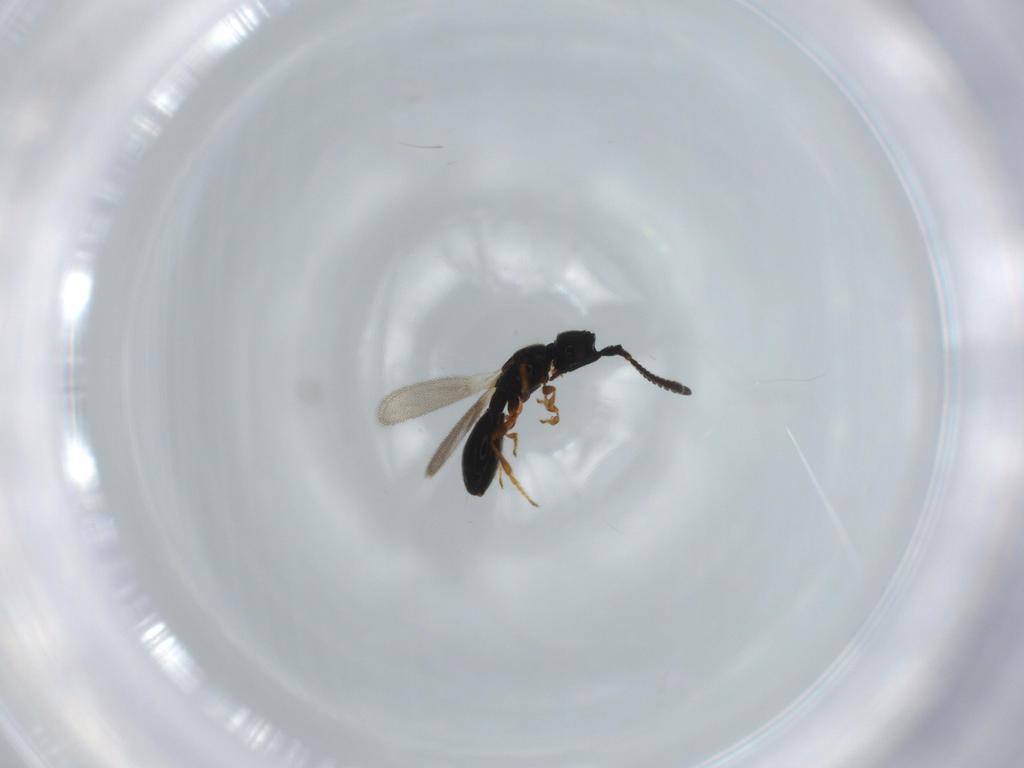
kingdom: Animalia
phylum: Arthropoda
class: Insecta
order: Hymenoptera
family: Diapriidae
